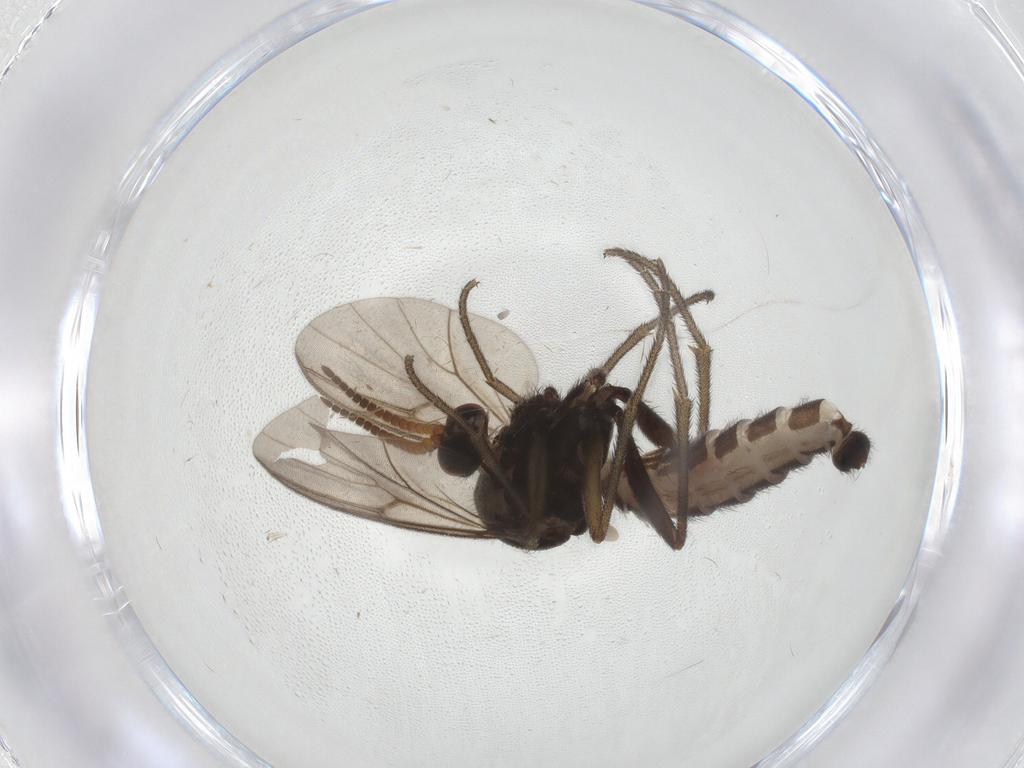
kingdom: Animalia
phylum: Arthropoda
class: Insecta
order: Diptera
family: Mycetophilidae
